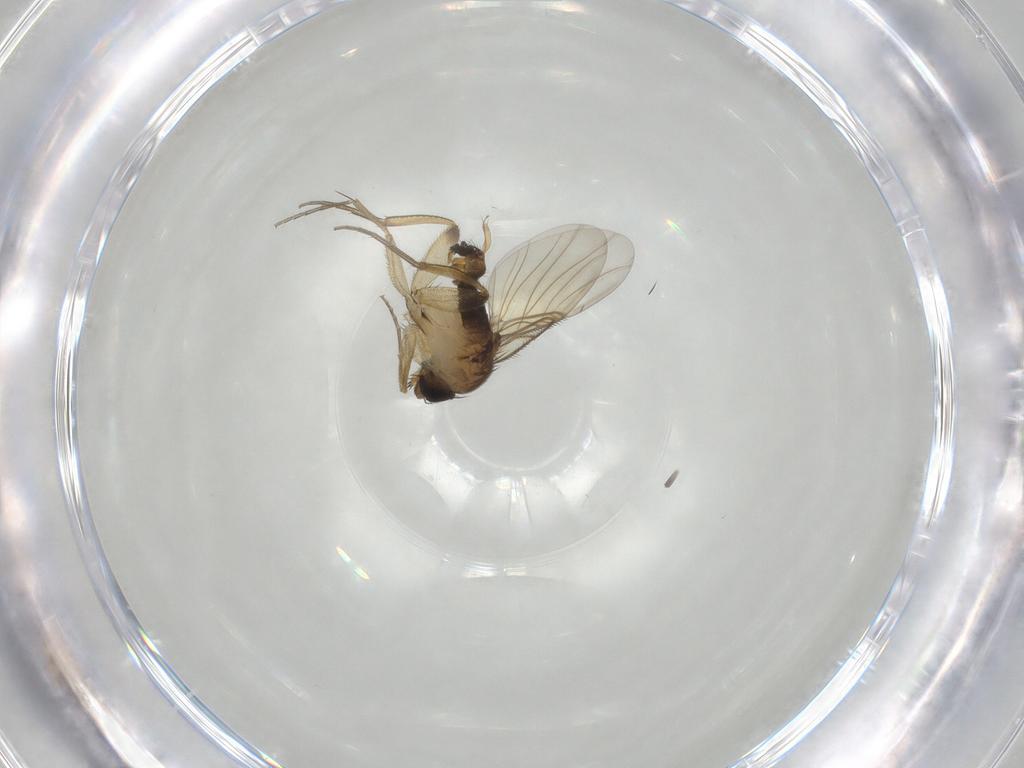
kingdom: Animalia
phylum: Arthropoda
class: Insecta
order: Diptera
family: Phoridae
